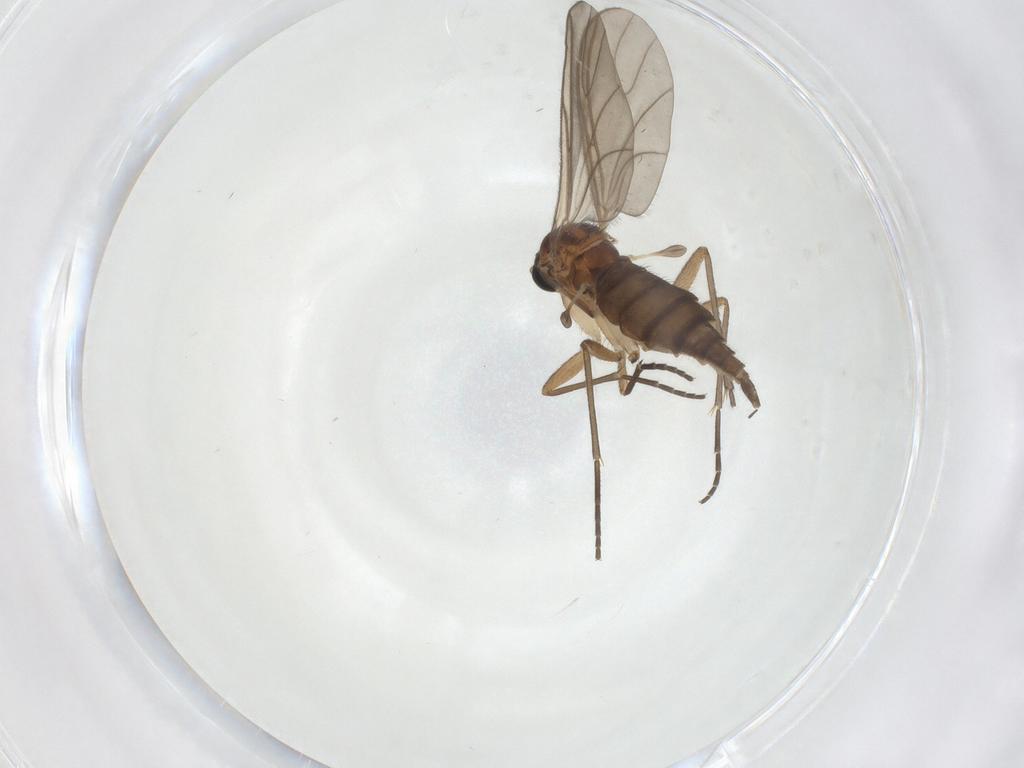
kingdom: Animalia
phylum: Arthropoda
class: Insecta
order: Diptera
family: Sciaridae
